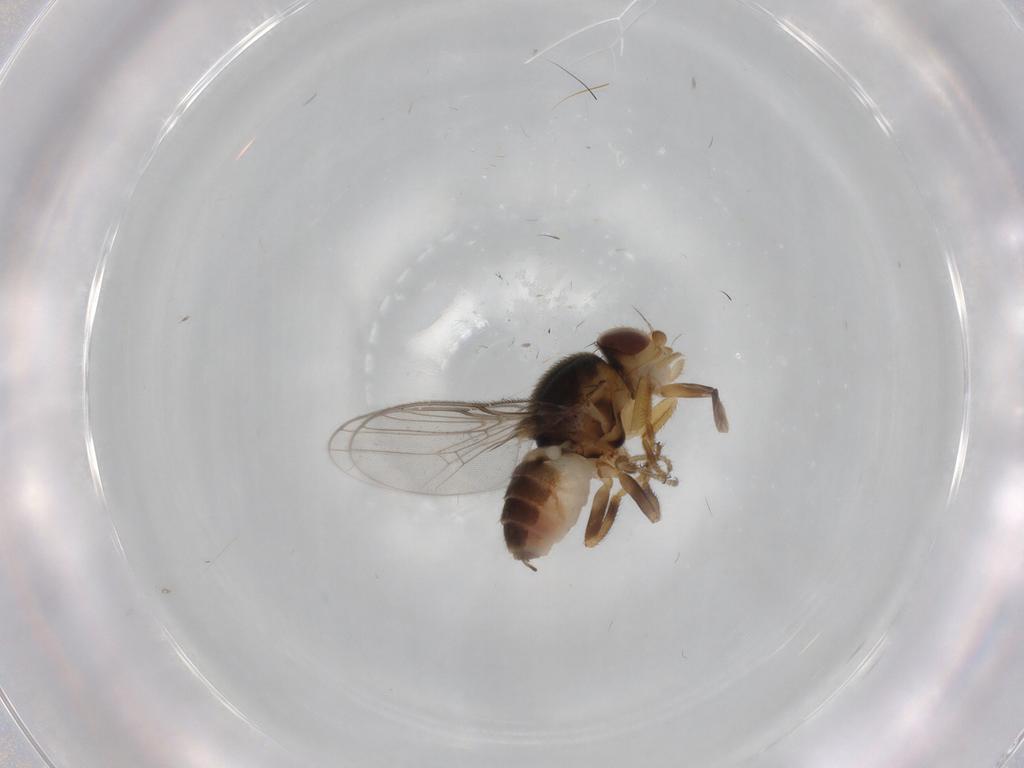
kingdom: Animalia
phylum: Arthropoda
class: Insecta
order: Diptera
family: Chloropidae
